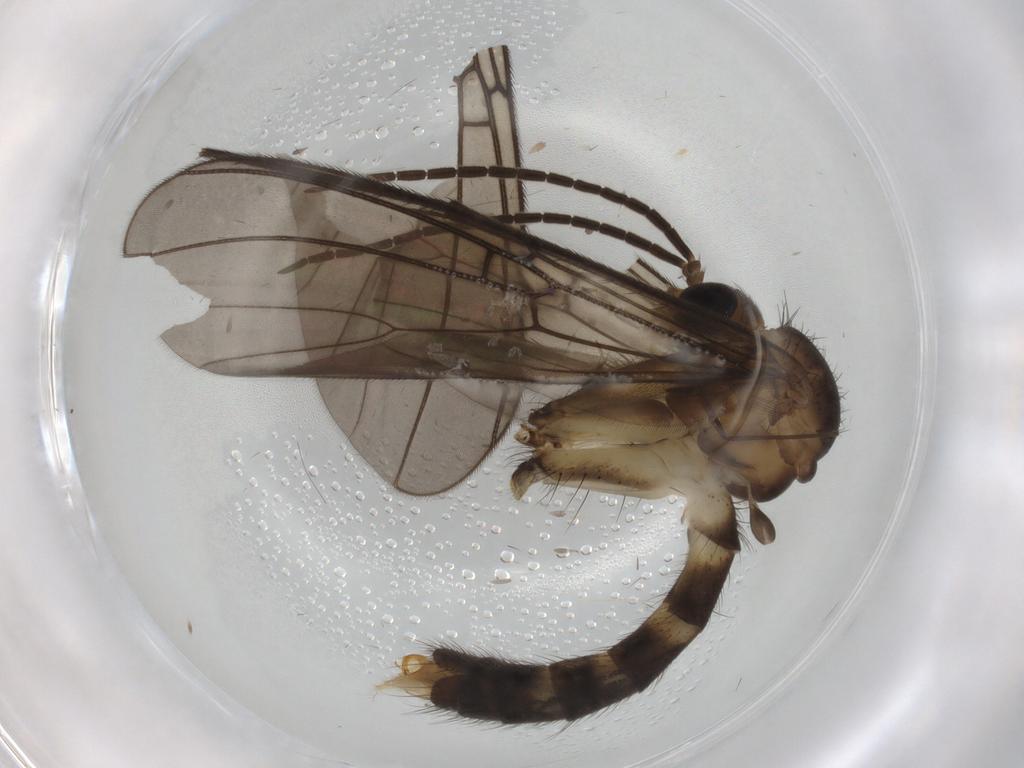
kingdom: Animalia
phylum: Arthropoda
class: Insecta
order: Diptera
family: Mycetophilidae
